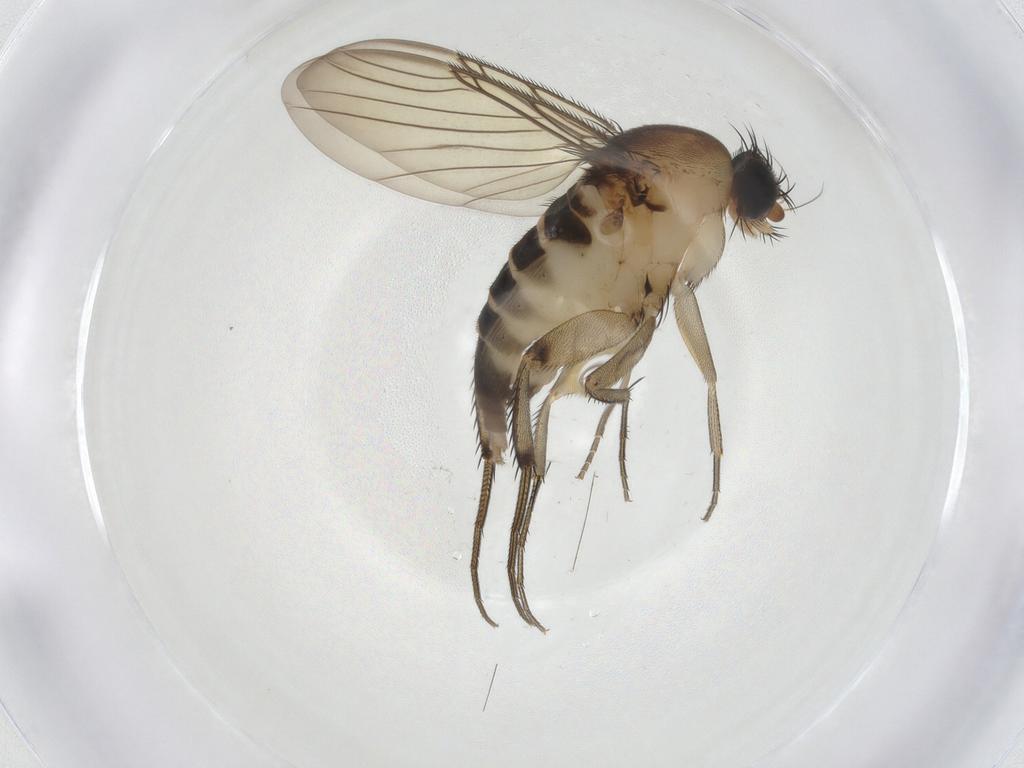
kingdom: Animalia
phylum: Arthropoda
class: Insecta
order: Diptera
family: Phoridae
